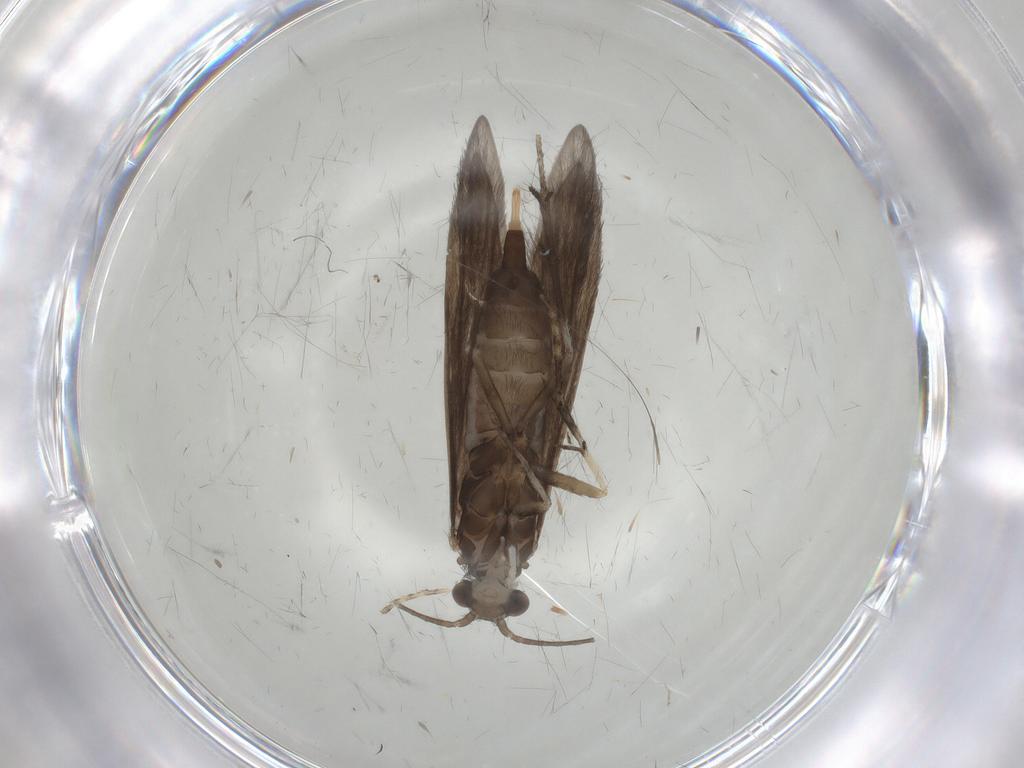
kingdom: Animalia
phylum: Arthropoda
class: Insecta
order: Trichoptera
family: Xiphocentronidae
